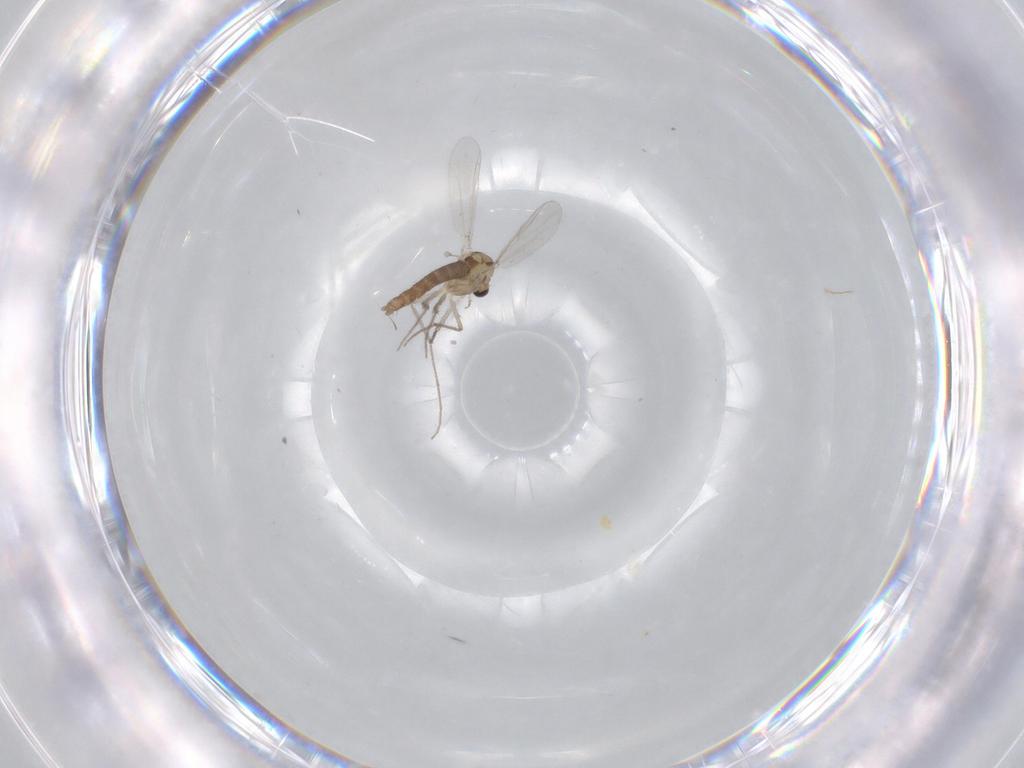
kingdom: Animalia
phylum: Arthropoda
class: Insecta
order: Diptera
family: Chironomidae
